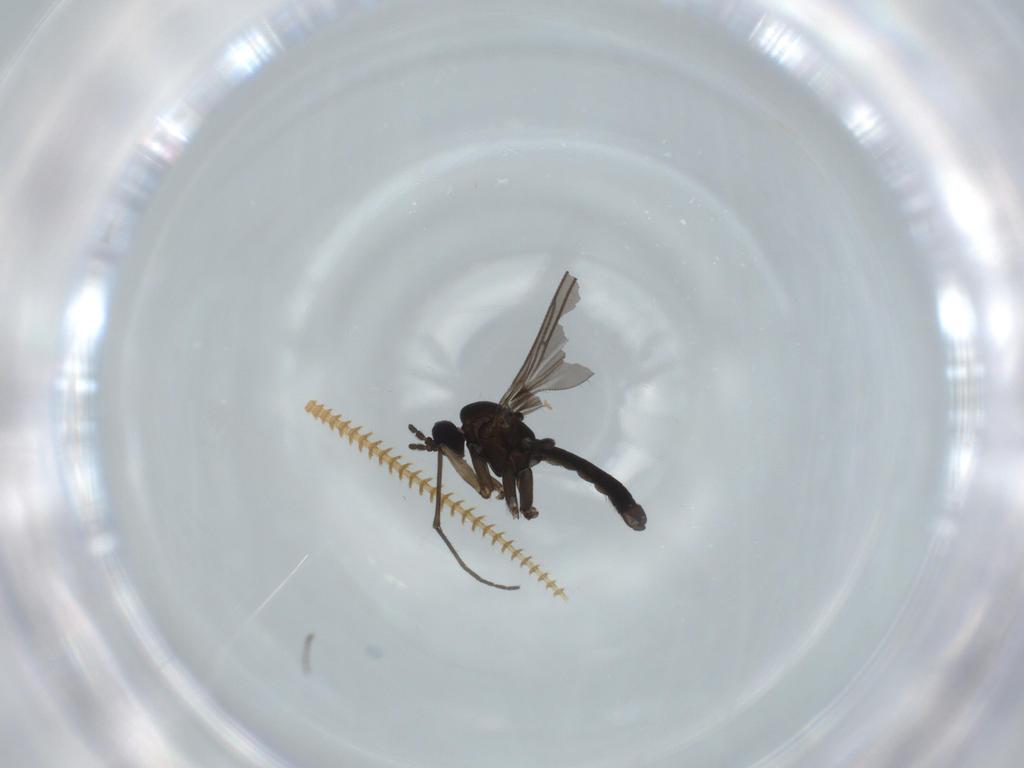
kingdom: Animalia
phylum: Arthropoda
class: Insecta
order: Diptera
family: Sciaridae
